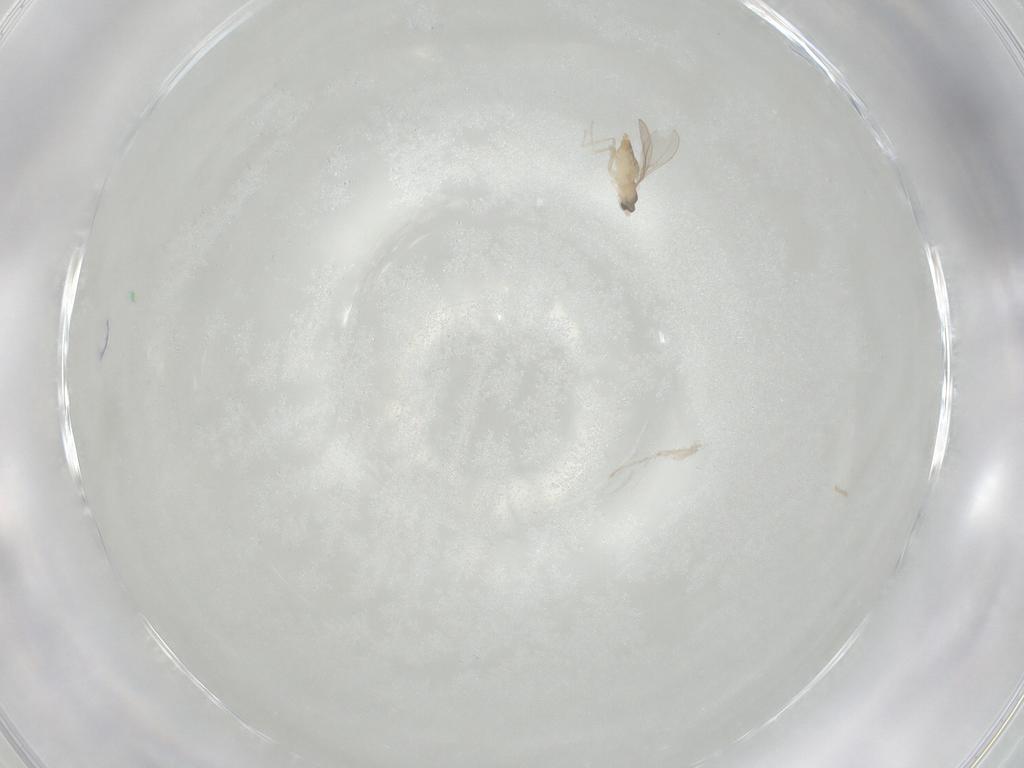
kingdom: Animalia
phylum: Arthropoda
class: Insecta
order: Diptera
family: Cecidomyiidae
